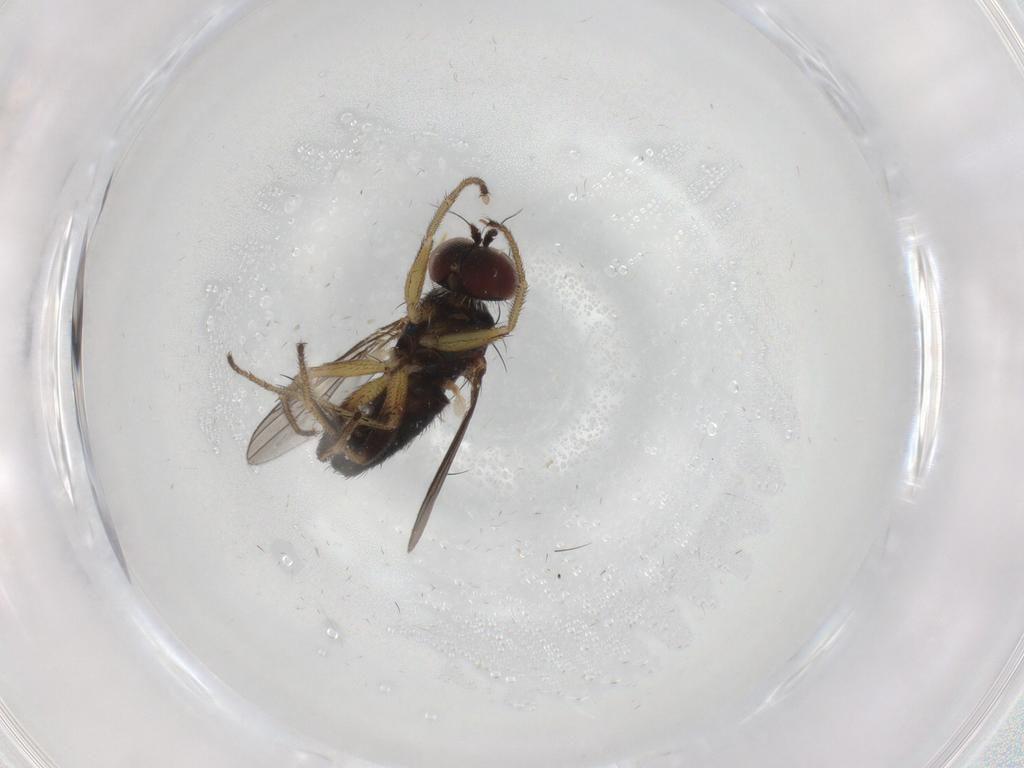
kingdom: Animalia
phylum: Arthropoda
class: Insecta
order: Diptera
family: Dolichopodidae
